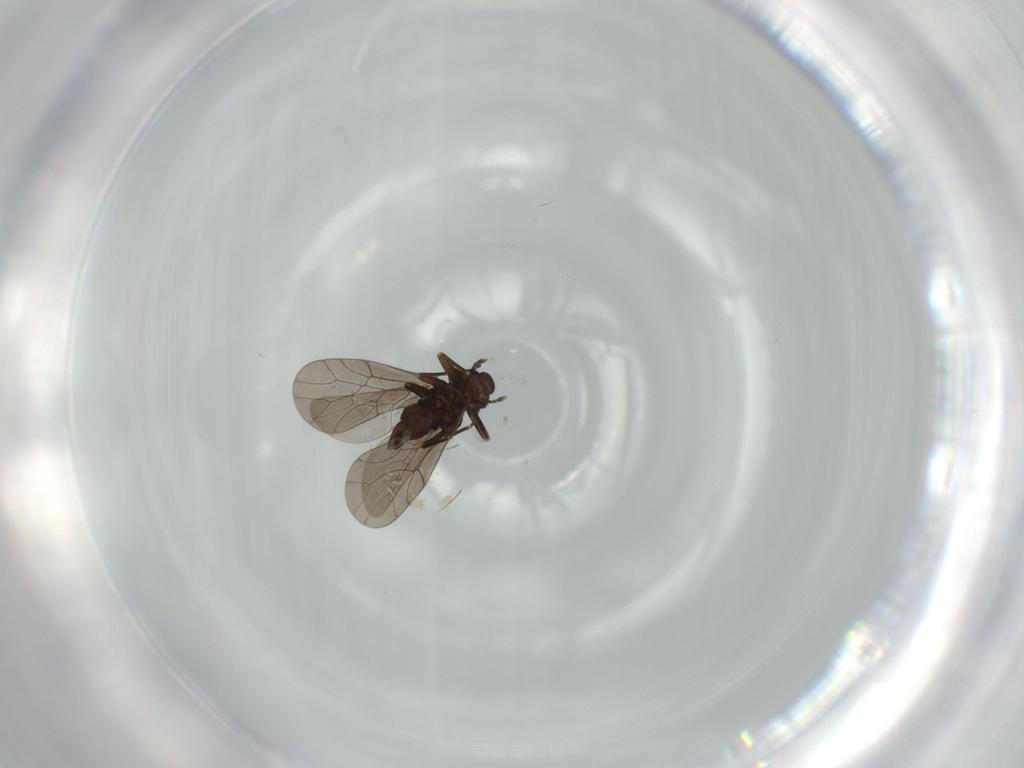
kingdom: Animalia
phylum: Arthropoda
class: Insecta
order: Psocodea
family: Lepidopsocidae
